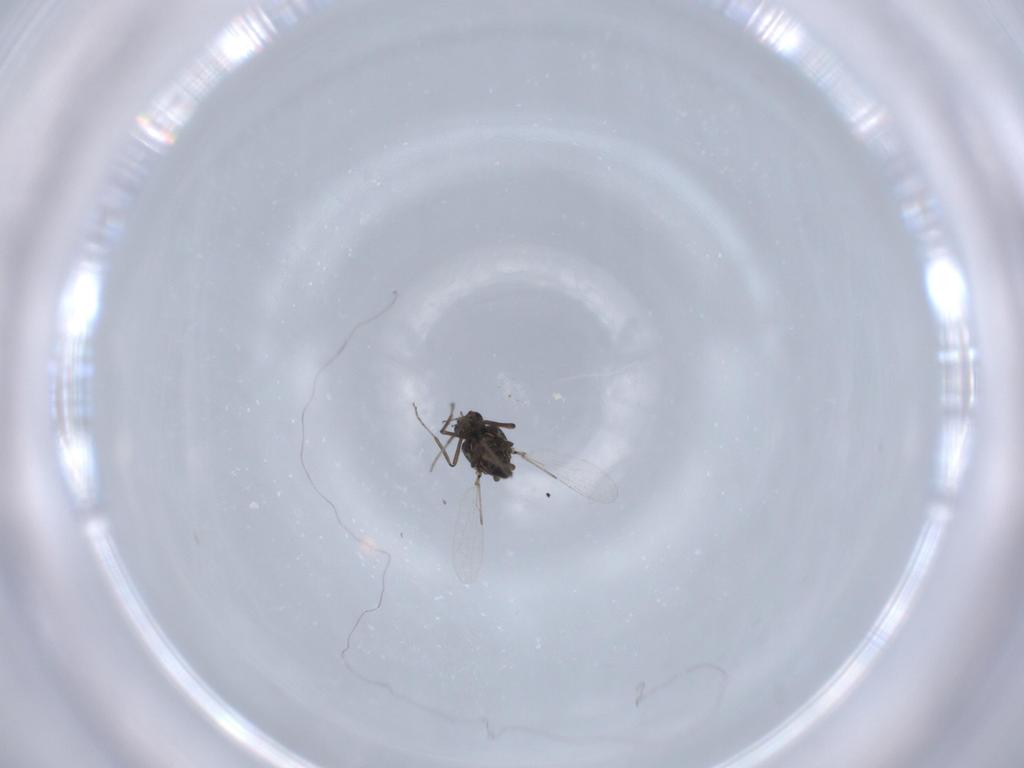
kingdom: Animalia
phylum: Arthropoda
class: Insecta
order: Diptera
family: Ceratopogonidae
